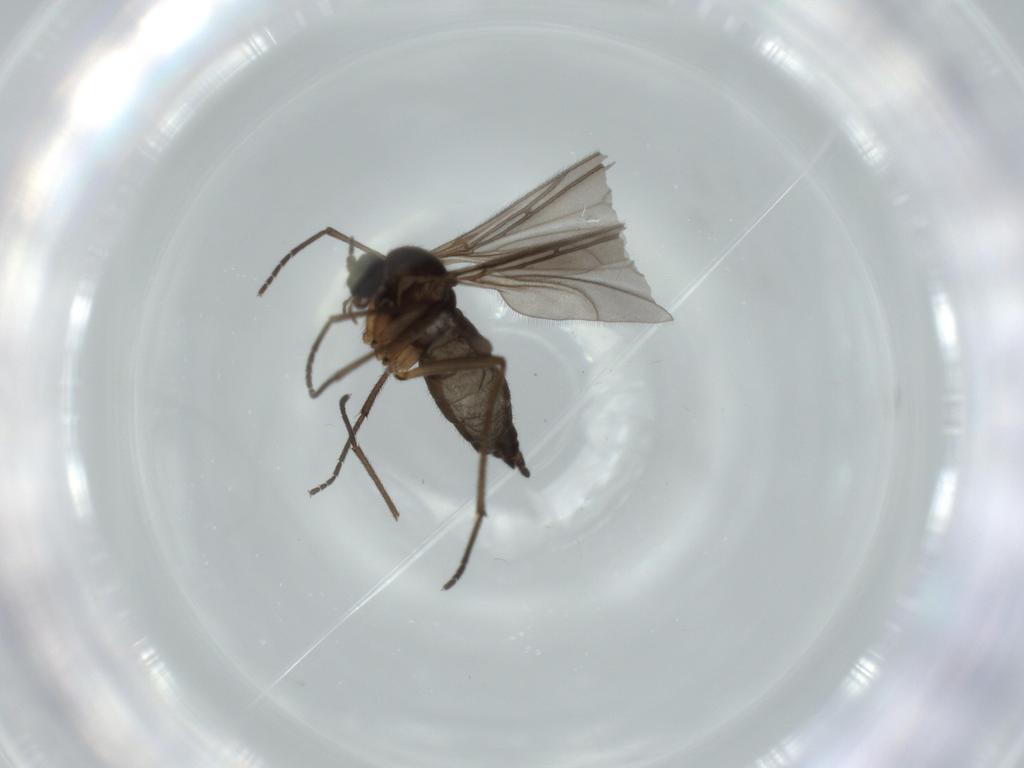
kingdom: Animalia
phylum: Arthropoda
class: Insecta
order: Diptera
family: Sciaridae
